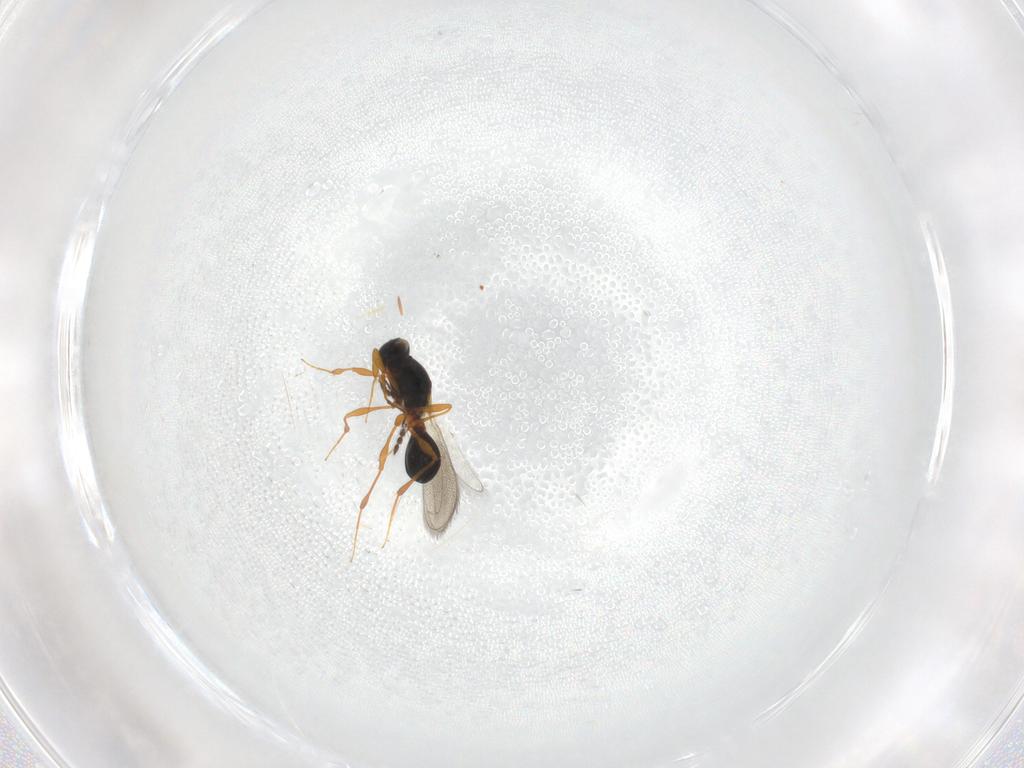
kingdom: Animalia
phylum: Arthropoda
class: Insecta
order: Hymenoptera
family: Platygastridae
